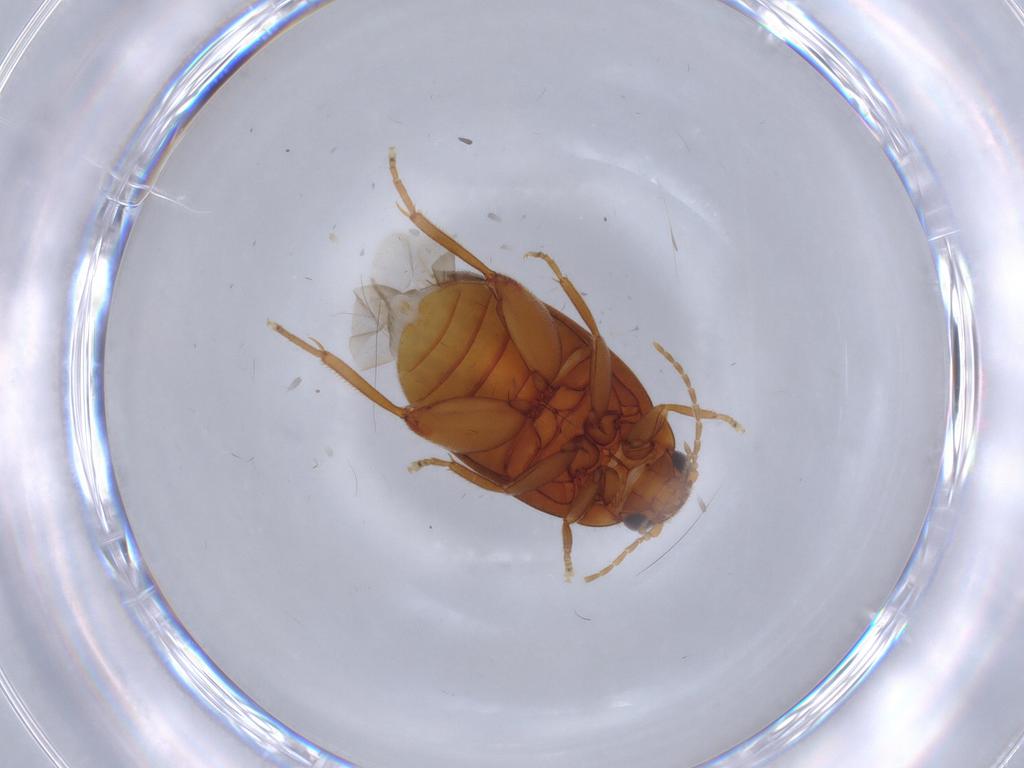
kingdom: Animalia
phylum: Arthropoda
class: Insecta
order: Coleoptera
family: Scirtidae
